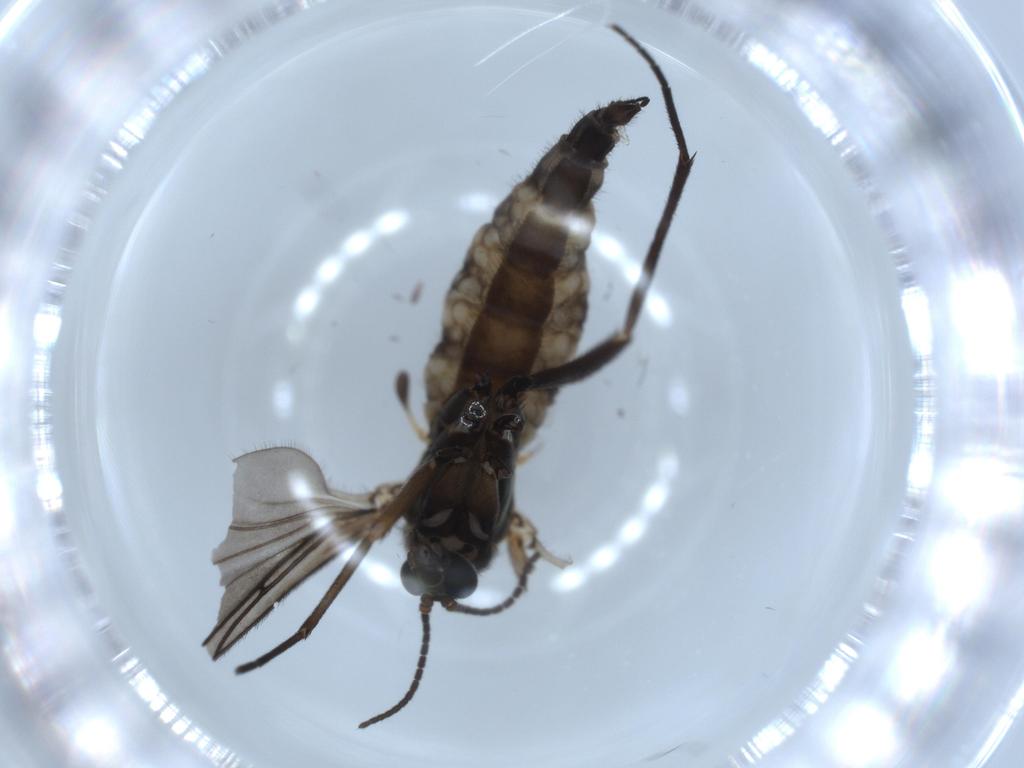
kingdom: Animalia
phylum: Arthropoda
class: Insecta
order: Diptera
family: Sciaridae
